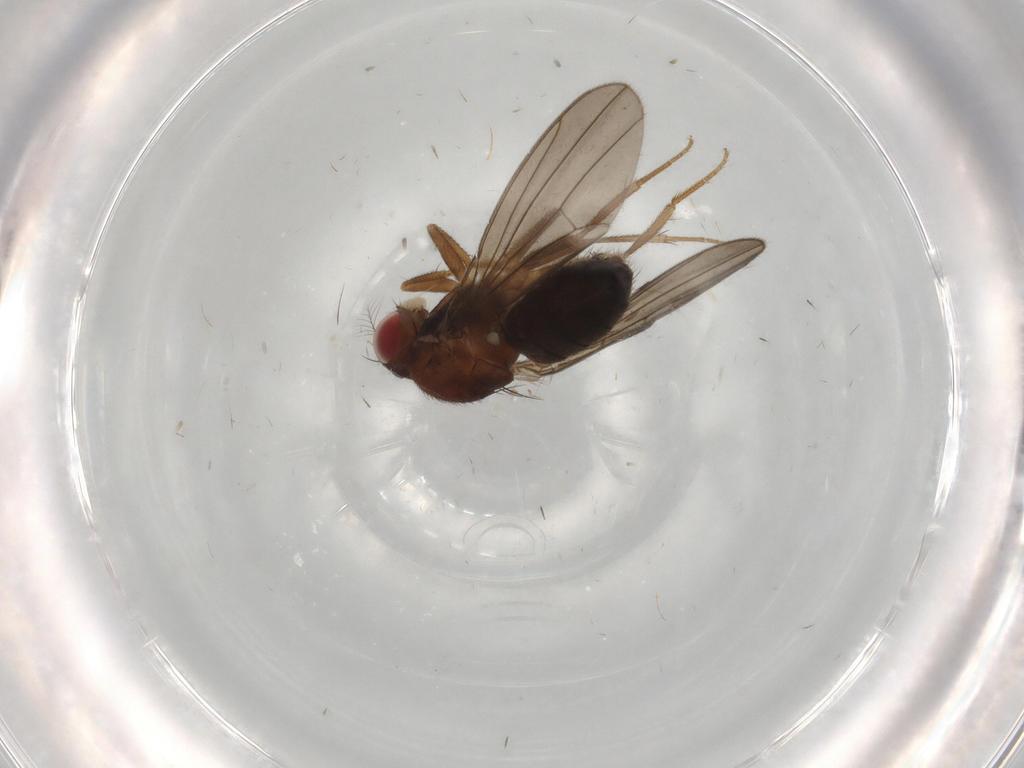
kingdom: Animalia
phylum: Arthropoda
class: Insecta
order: Diptera
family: Drosophilidae
